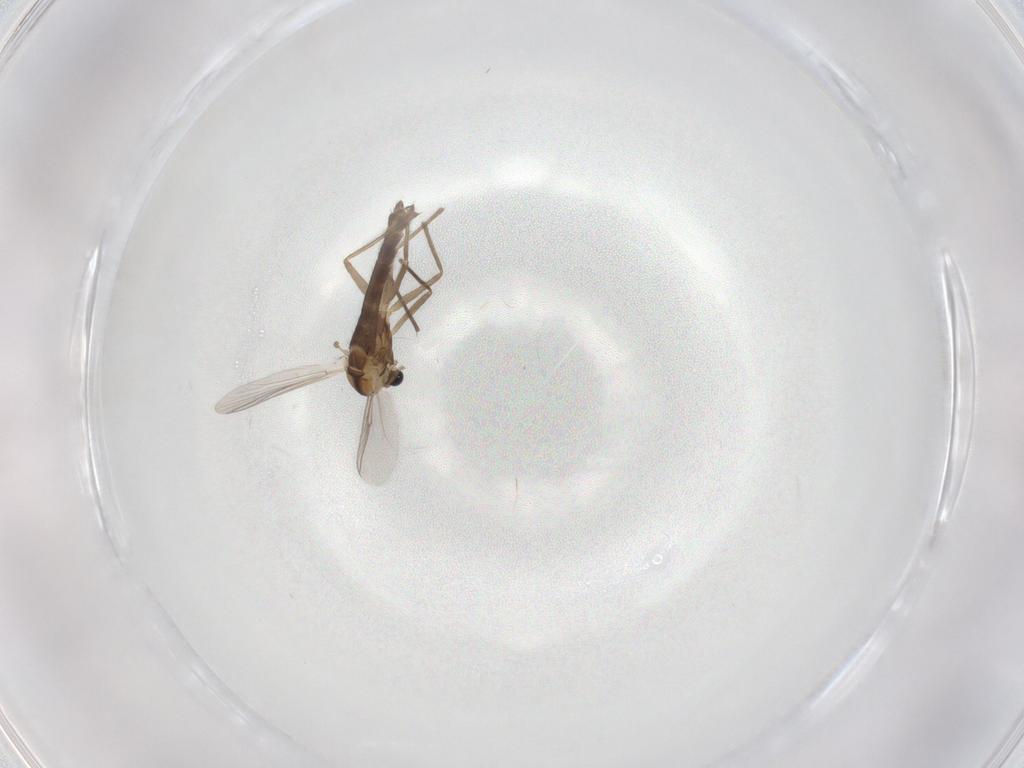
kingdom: Animalia
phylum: Arthropoda
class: Insecta
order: Diptera
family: Chironomidae
